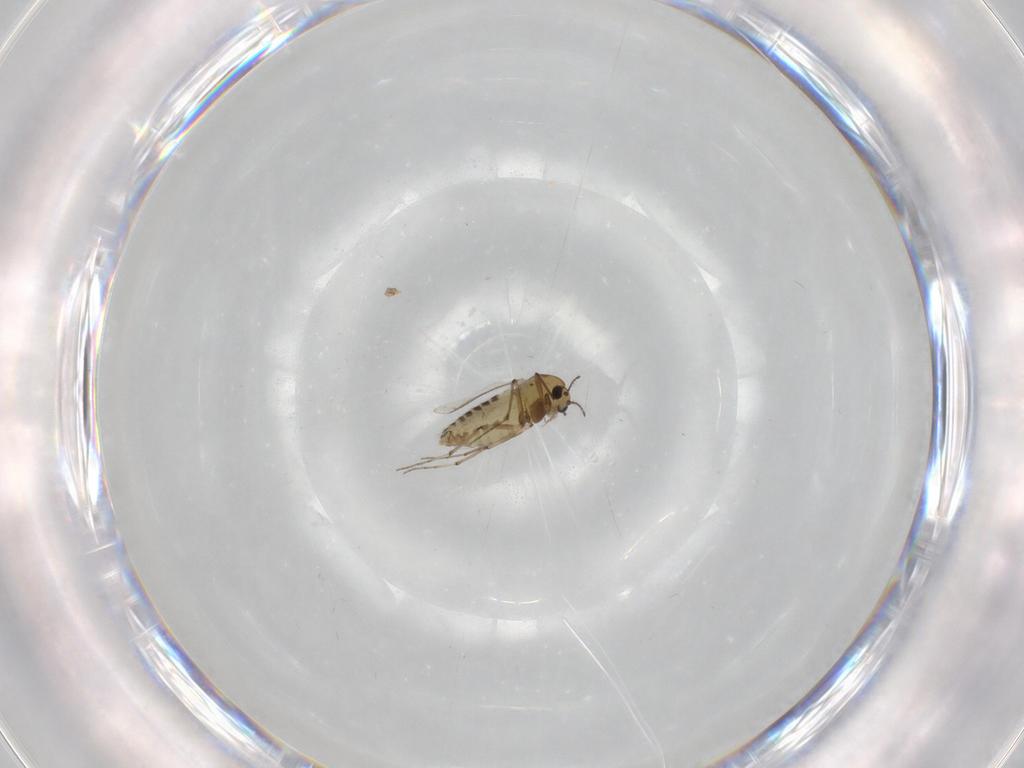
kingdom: Animalia
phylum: Arthropoda
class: Insecta
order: Diptera
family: Chironomidae
